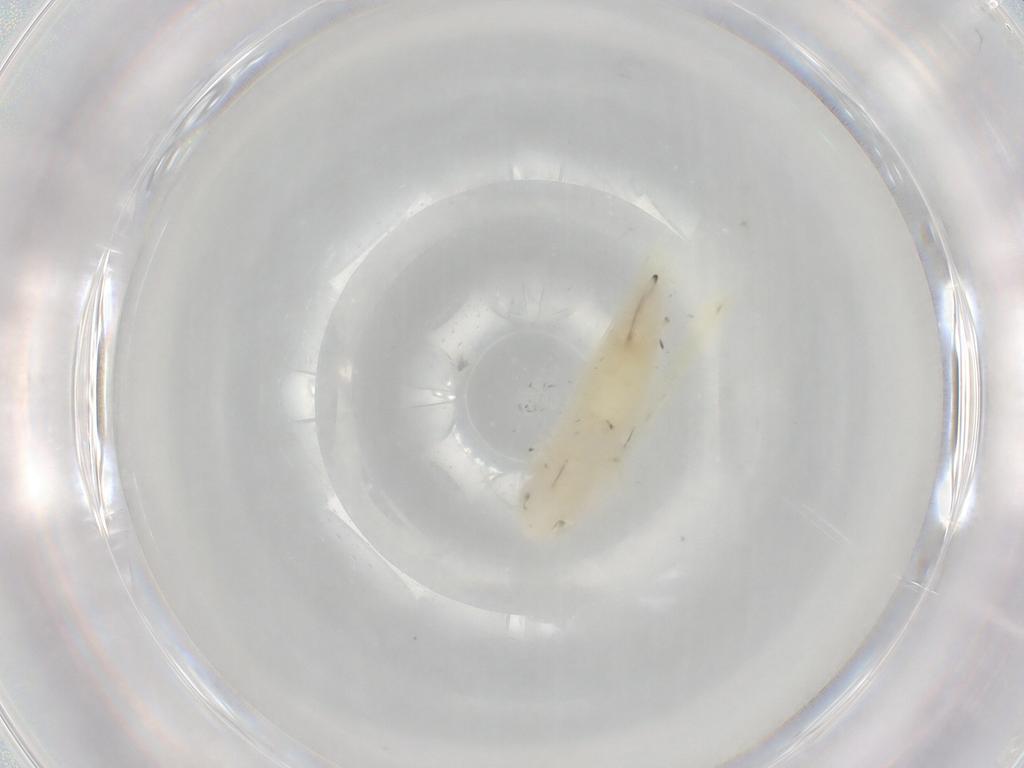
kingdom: Animalia
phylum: Arthropoda
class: Insecta
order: Hemiptera
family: Cicadellidae
